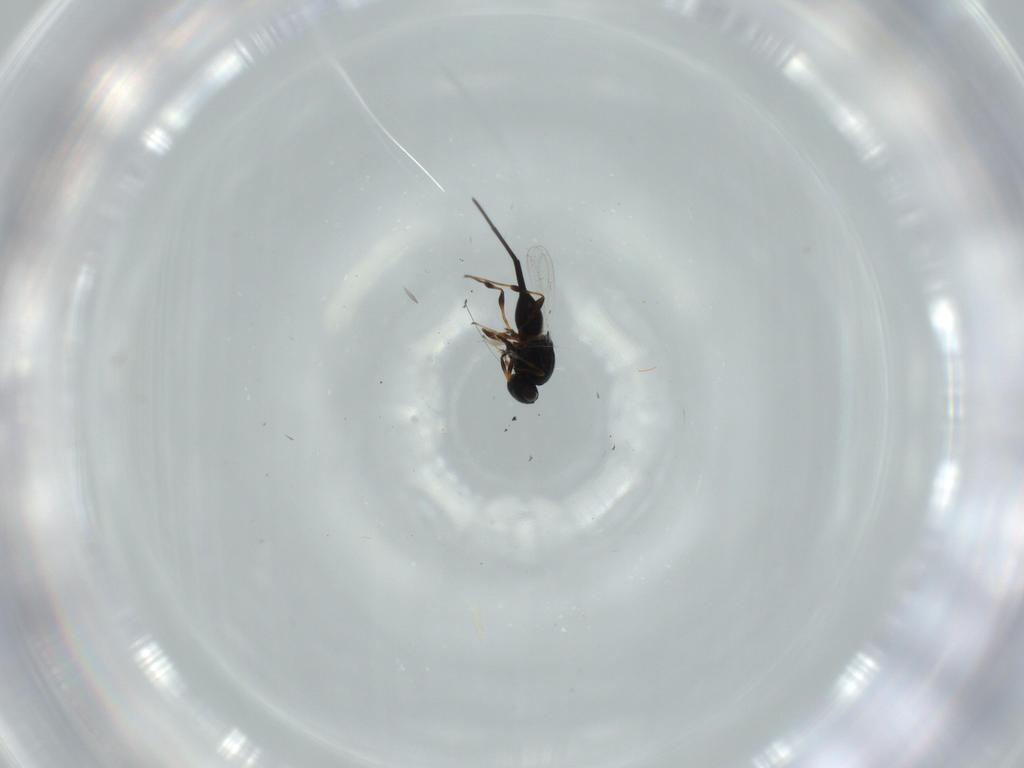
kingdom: Animalia
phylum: Arthropoda
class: Insecta
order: Hymenoptera
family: Platygastridae
